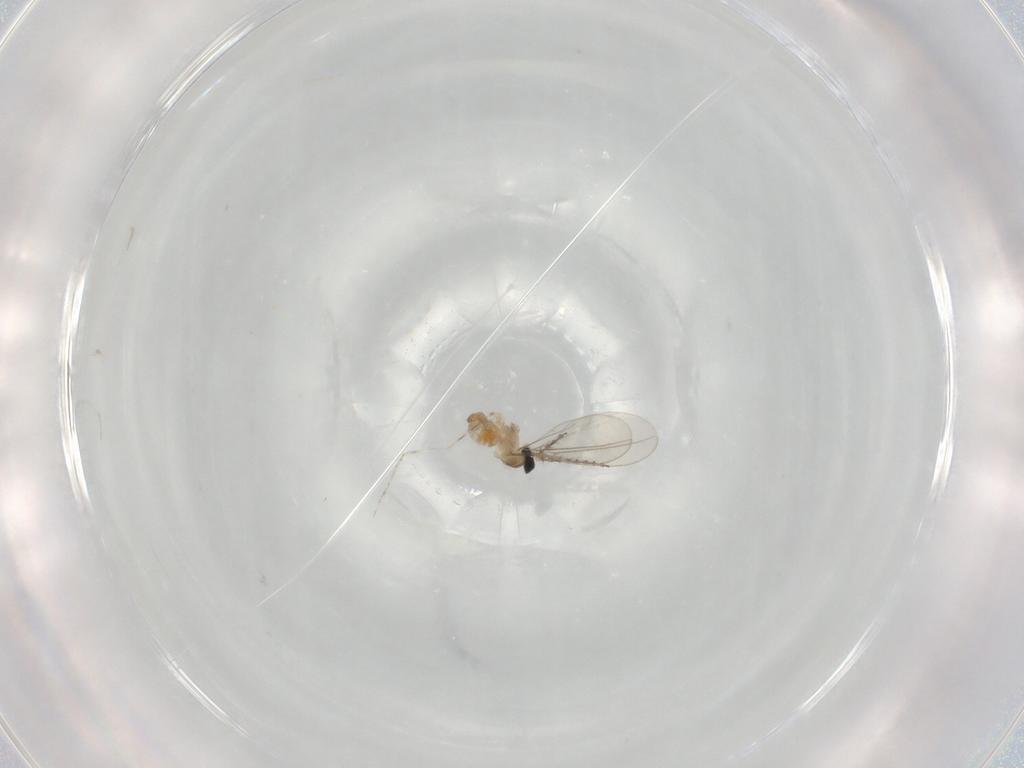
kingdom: Animalia
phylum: Arthropoda
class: Insecta
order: Diptera
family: Cecidomyiidae
